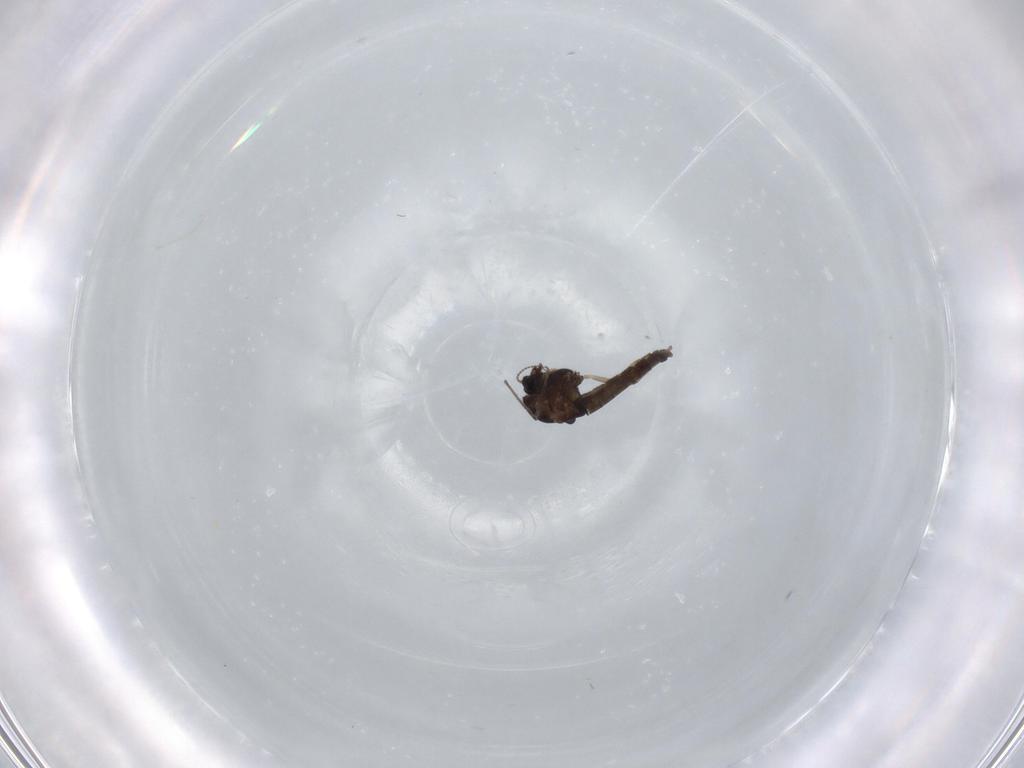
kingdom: Animalia
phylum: Arthropoda
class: Insecta
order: Diptera
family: Chironomidae
